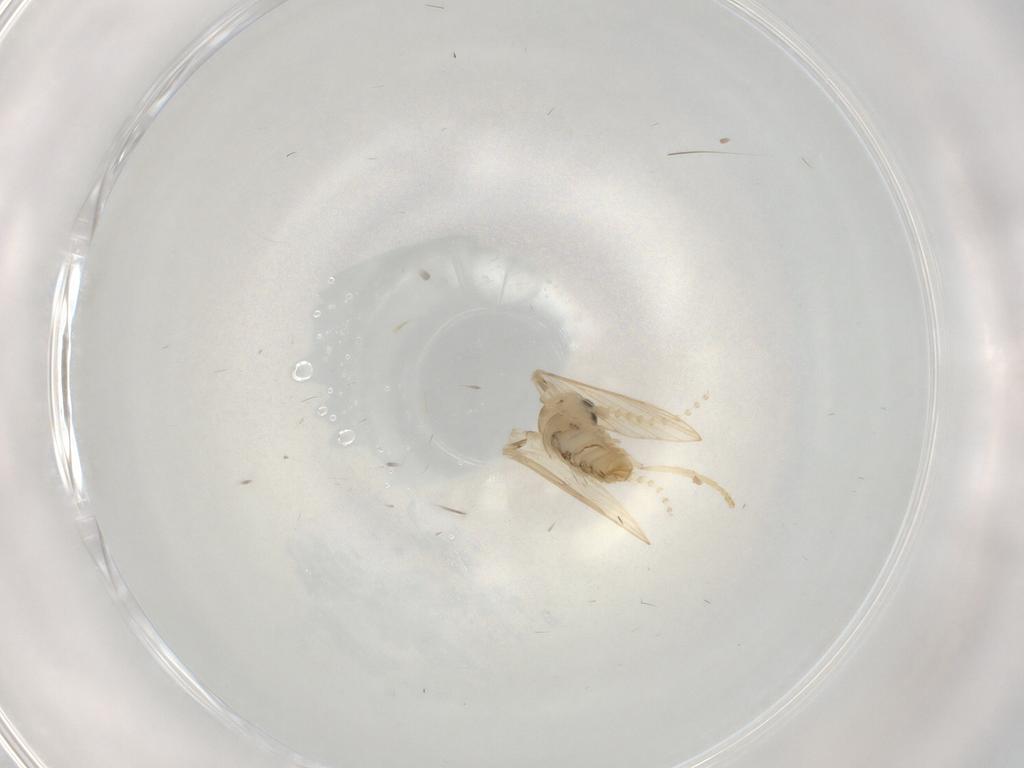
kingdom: Animalia
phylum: Arthropoda
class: Insecta
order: Diptera
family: Psychodidae
